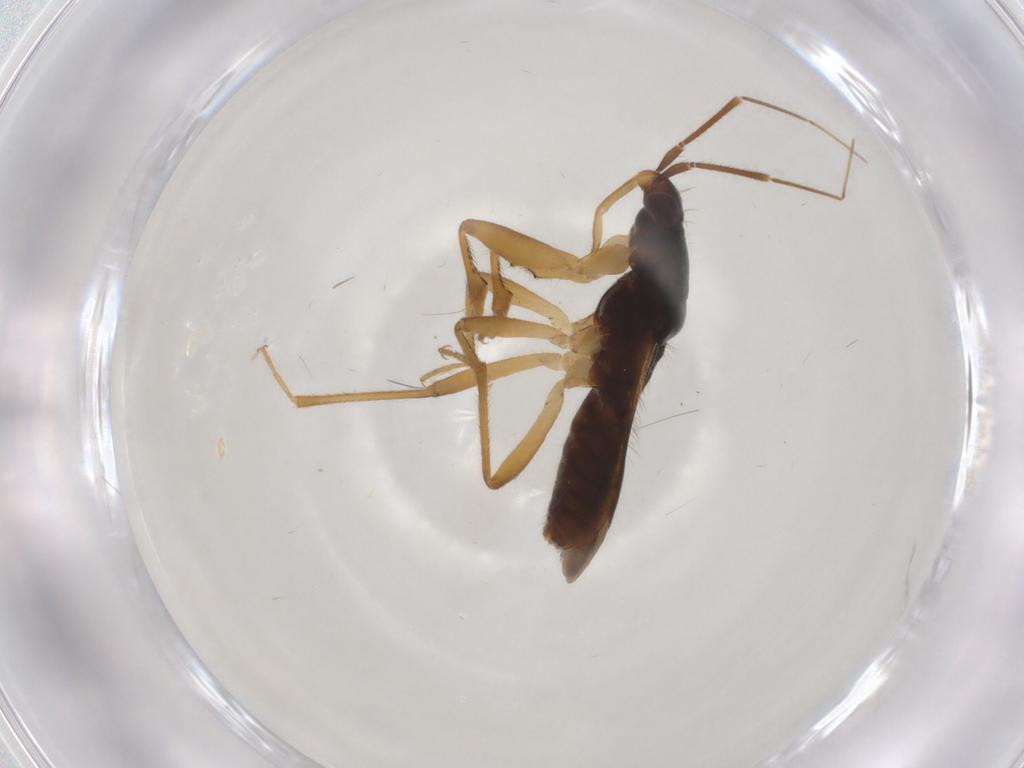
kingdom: Animalia
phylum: Arthropoda
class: Insecta
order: Hemiptera
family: Nabidae
